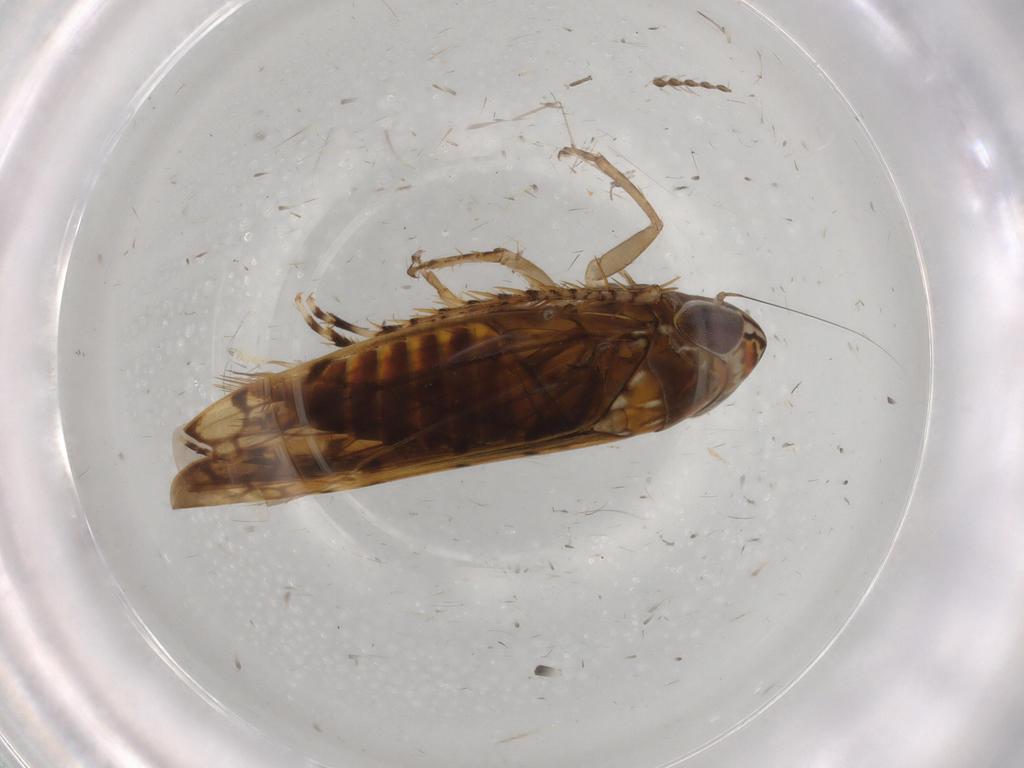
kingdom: Animalia
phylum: Arthropoda
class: Insecta
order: Hemiptera
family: Cicadellidae
